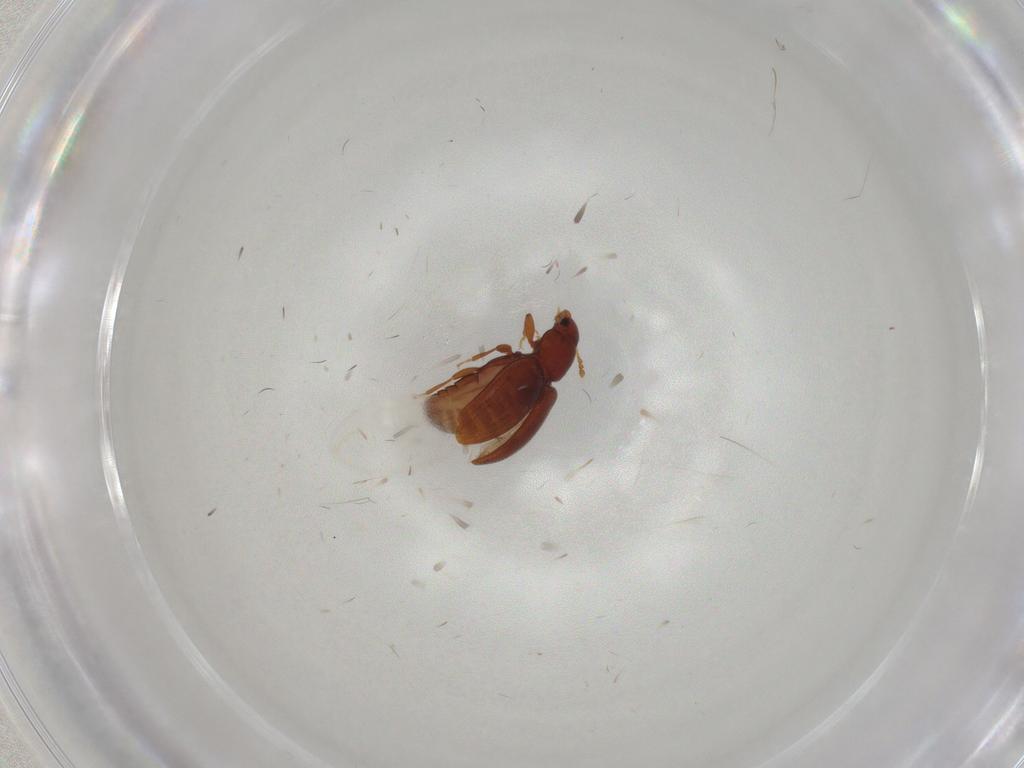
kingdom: Animalia
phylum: Arthropoda
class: Insecta
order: Coleoptera
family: Latridiidae
